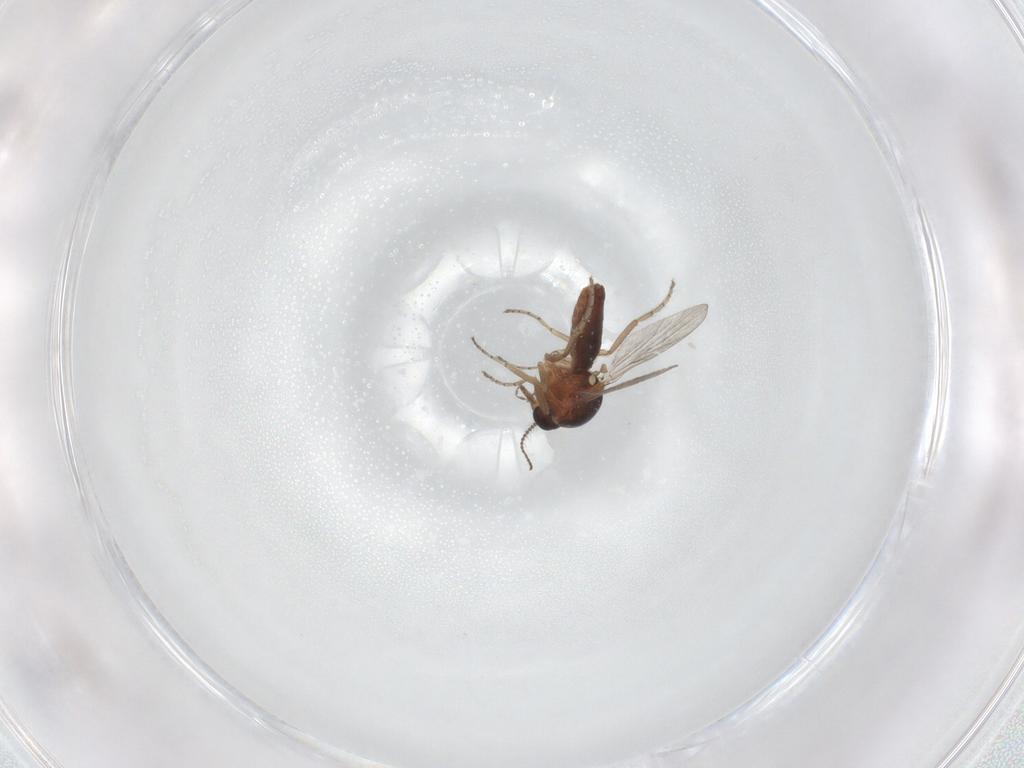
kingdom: Animalia
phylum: Arthropoda
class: Insecta
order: Diptera
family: Ceratopogonidae
